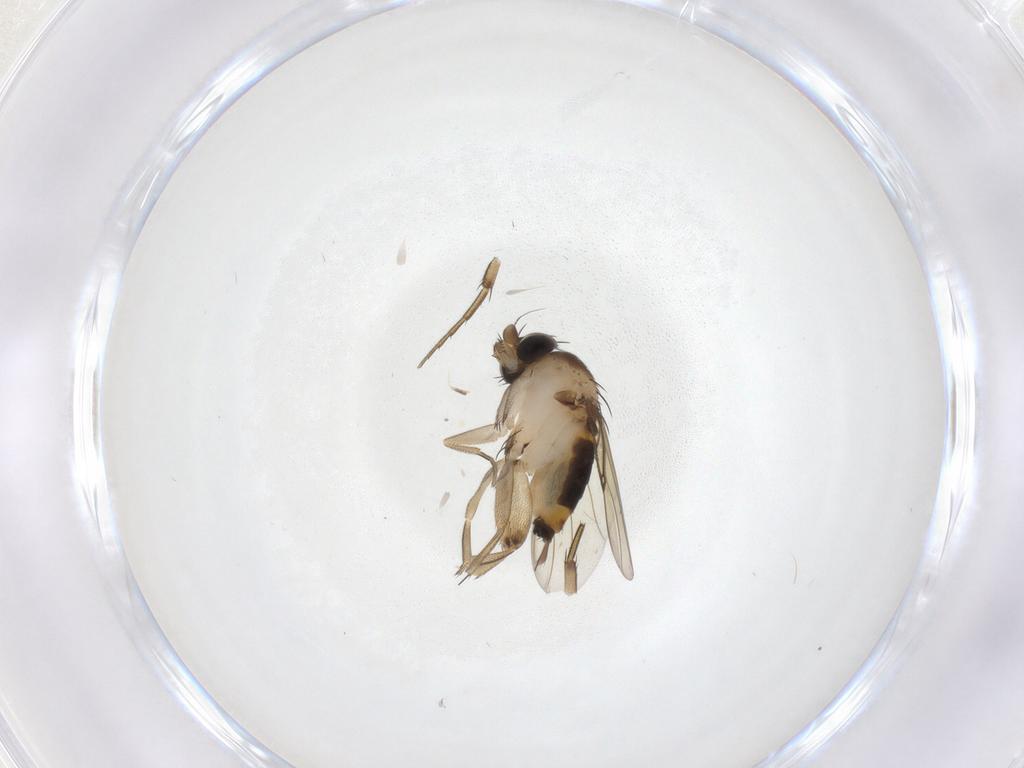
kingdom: Animalia
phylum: Arthropoda
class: Insecta
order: Diptera
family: Phoridae
